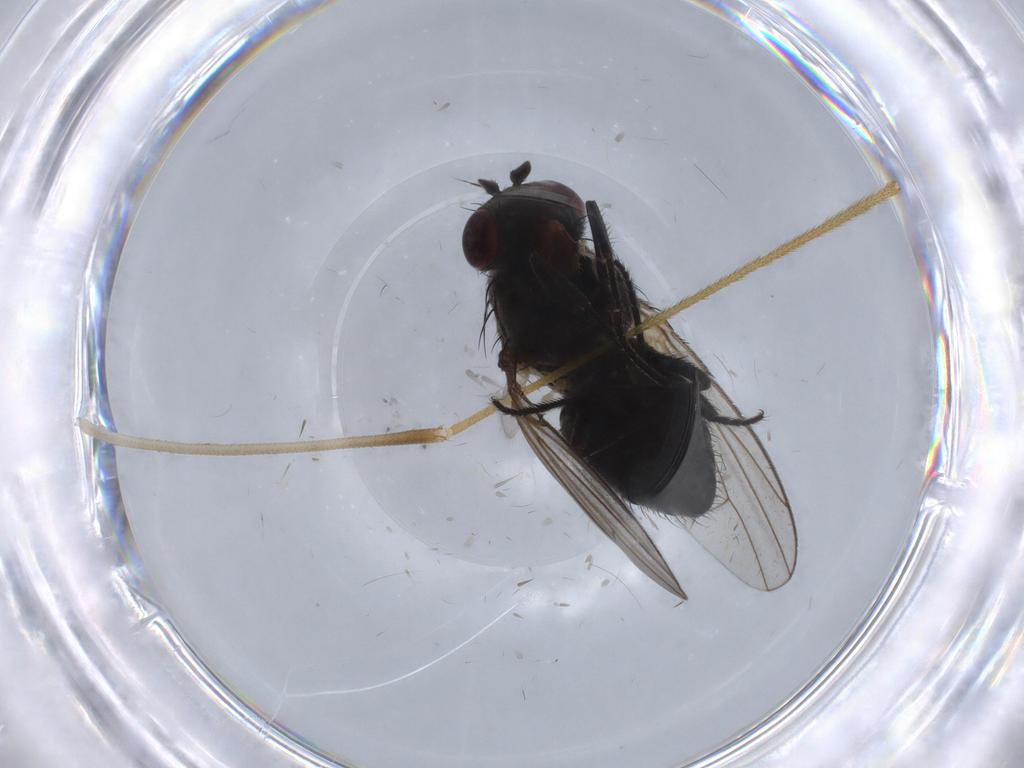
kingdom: Animalia
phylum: Arthropoda
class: Insecta
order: Diptera
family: Ephydridae
